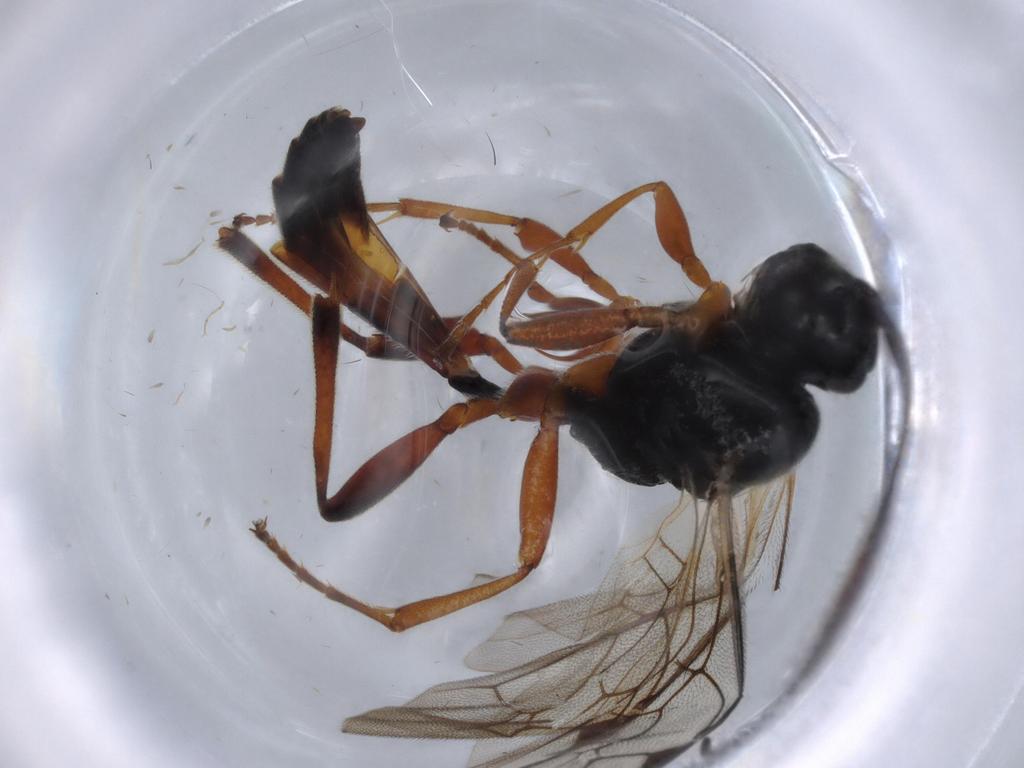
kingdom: Animalia
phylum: Arthropoda
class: Insecta
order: Hymenoptera
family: Ichneumonidae
